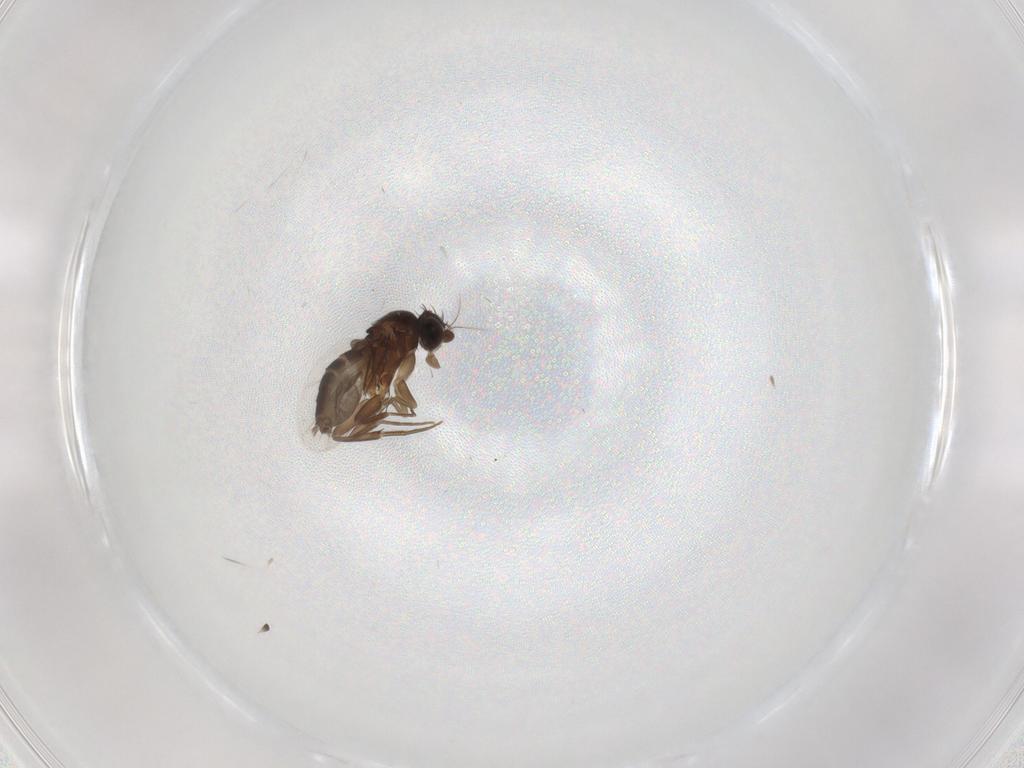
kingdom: Animalia
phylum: Arthropoda
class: Insecta
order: Diptera
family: Phoridae
